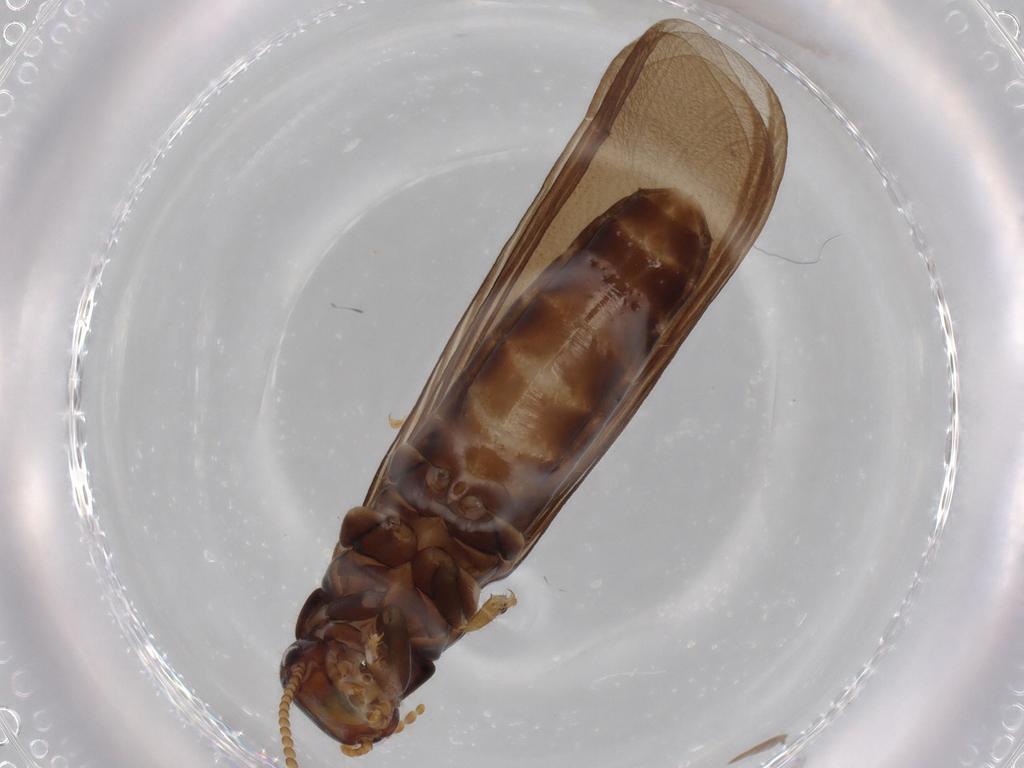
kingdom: Animalia
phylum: Arthropoda
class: Insecta
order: Blattodea
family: Kalotermitidae
